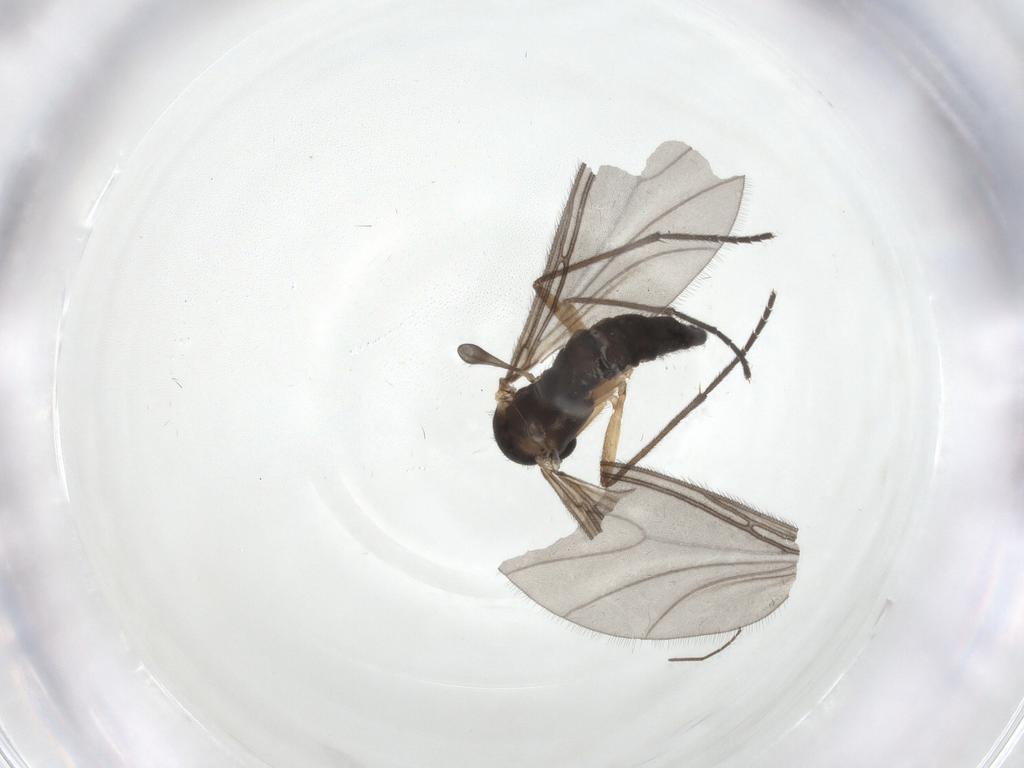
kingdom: Animalia
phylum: Arthropoda
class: Insecta
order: Diptera
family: Sciaridae
